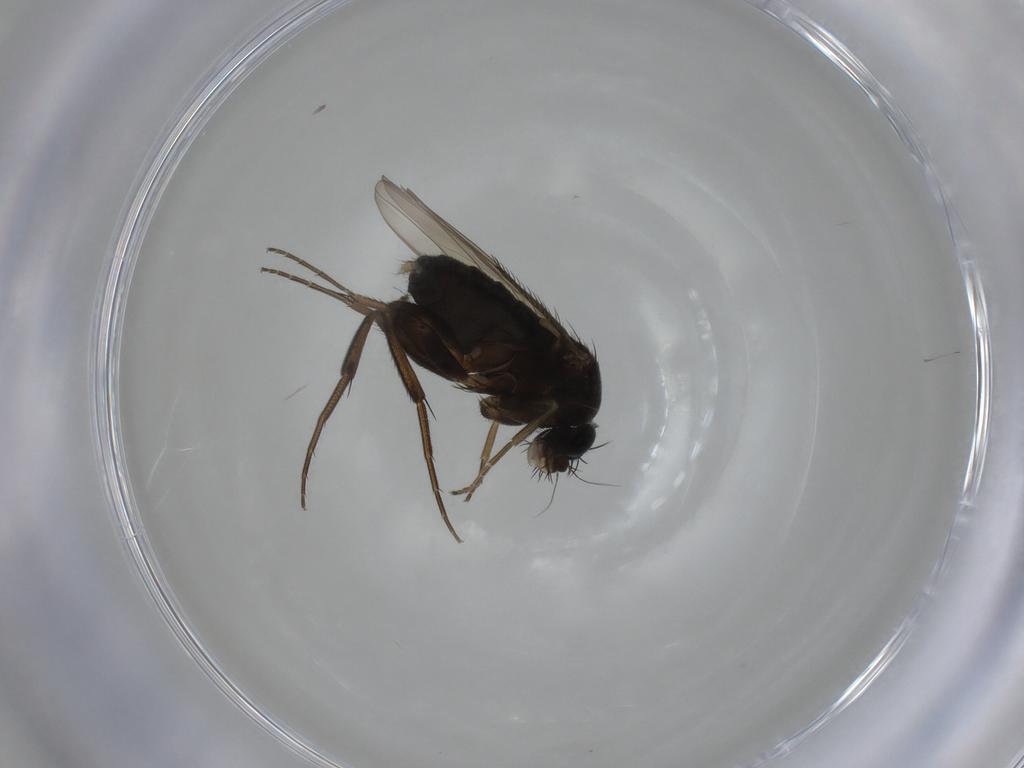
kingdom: Animalia
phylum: Arthropoda
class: Insecta
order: Diptera
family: Phoridae
